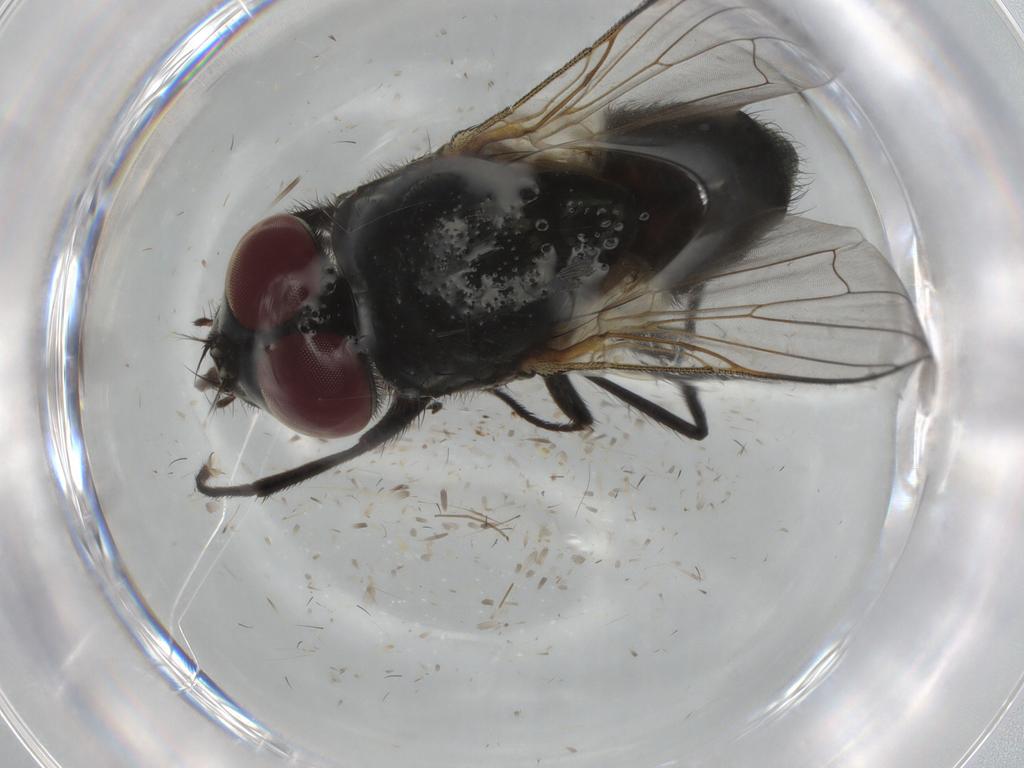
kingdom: Animalia
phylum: Arthropoda
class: Insecta
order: Diptera
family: Muscidae
